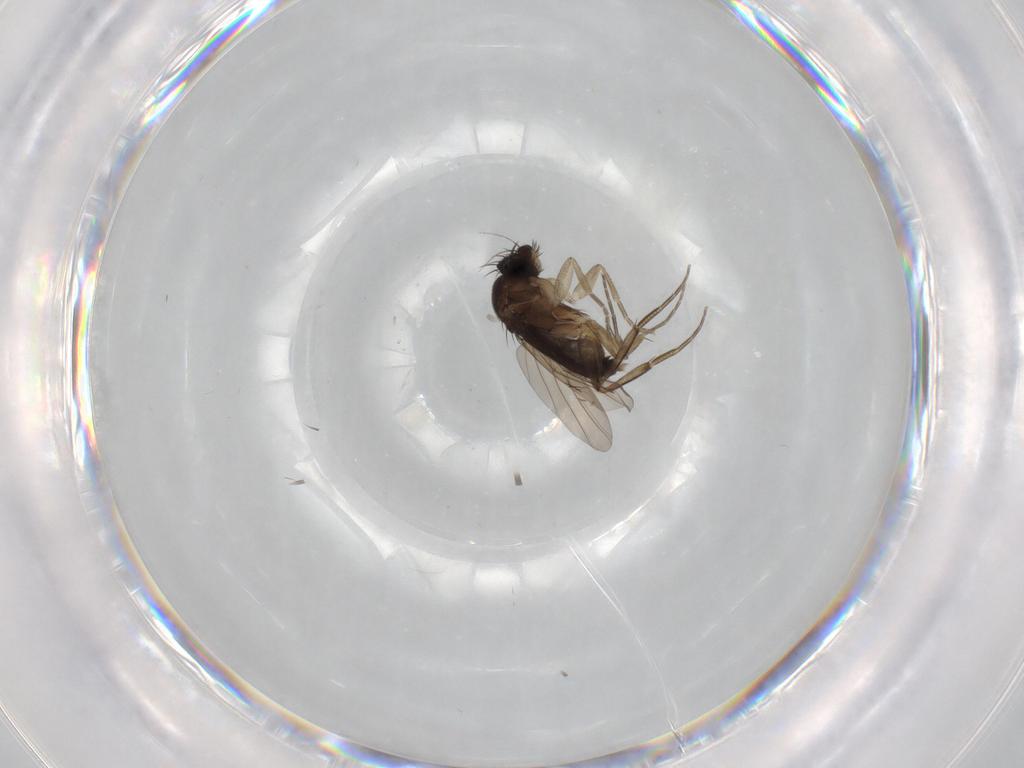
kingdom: Animalia
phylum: Arthropoda
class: Insecta
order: Diptera
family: Phoridae
